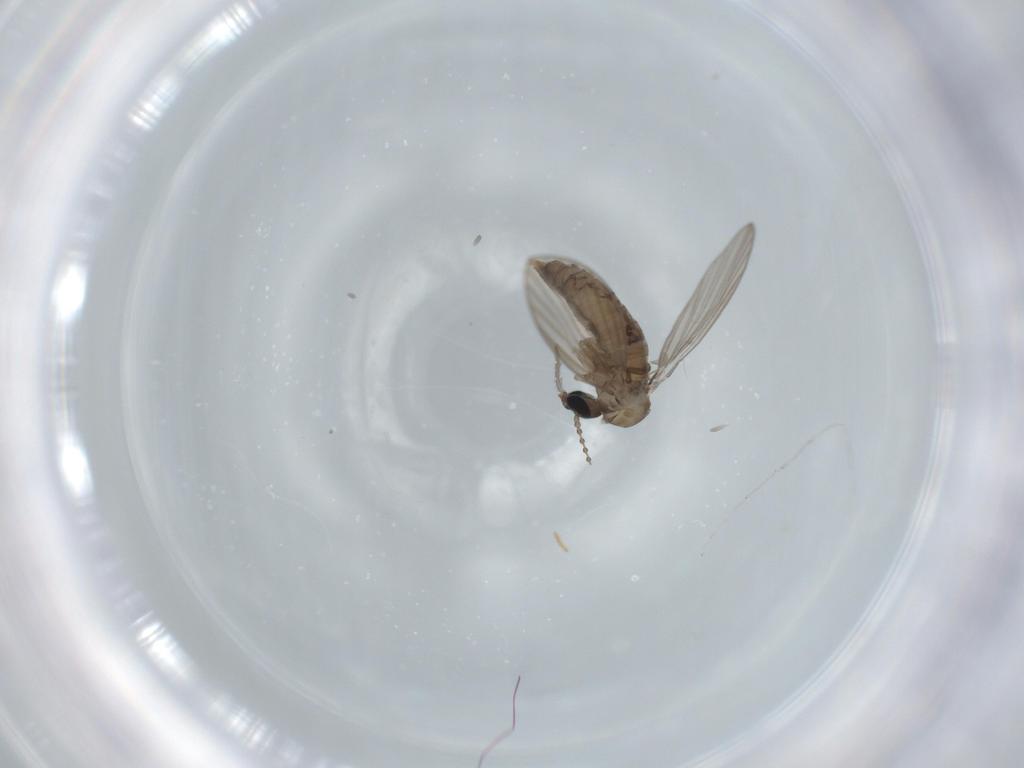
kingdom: Animalia
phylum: Arthropoda
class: Insecta
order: Diptera
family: Psychodidae
